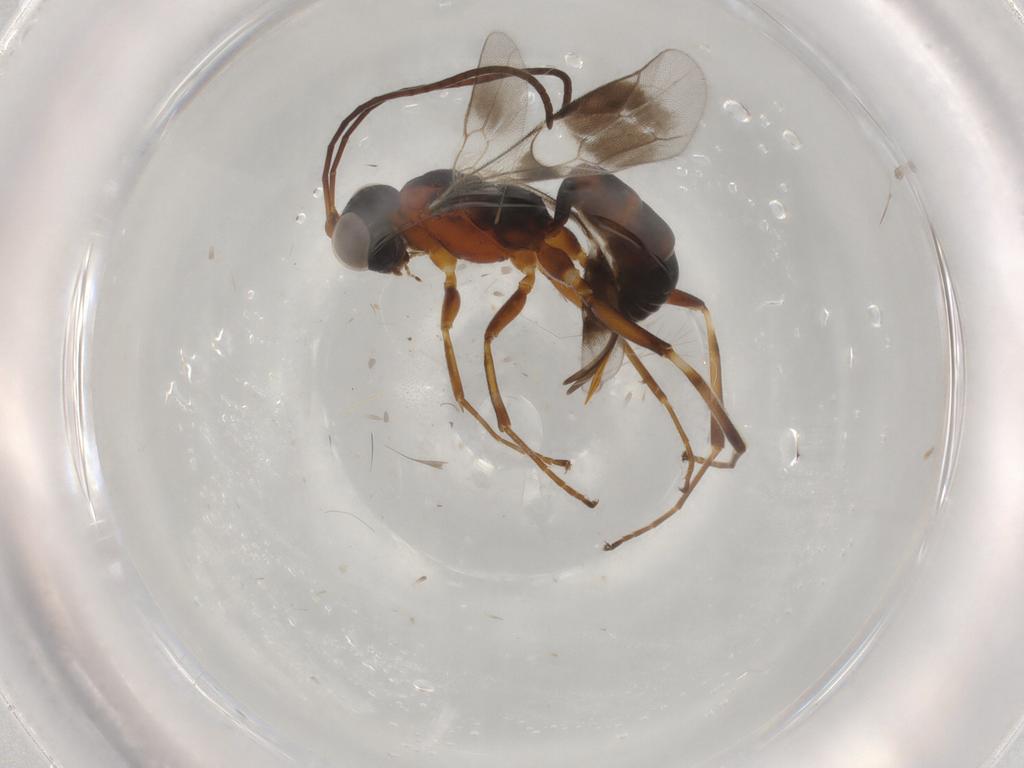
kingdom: Animalia
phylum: Arthropoda
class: Insecta
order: Hymenoptera
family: Ichneumonidae
